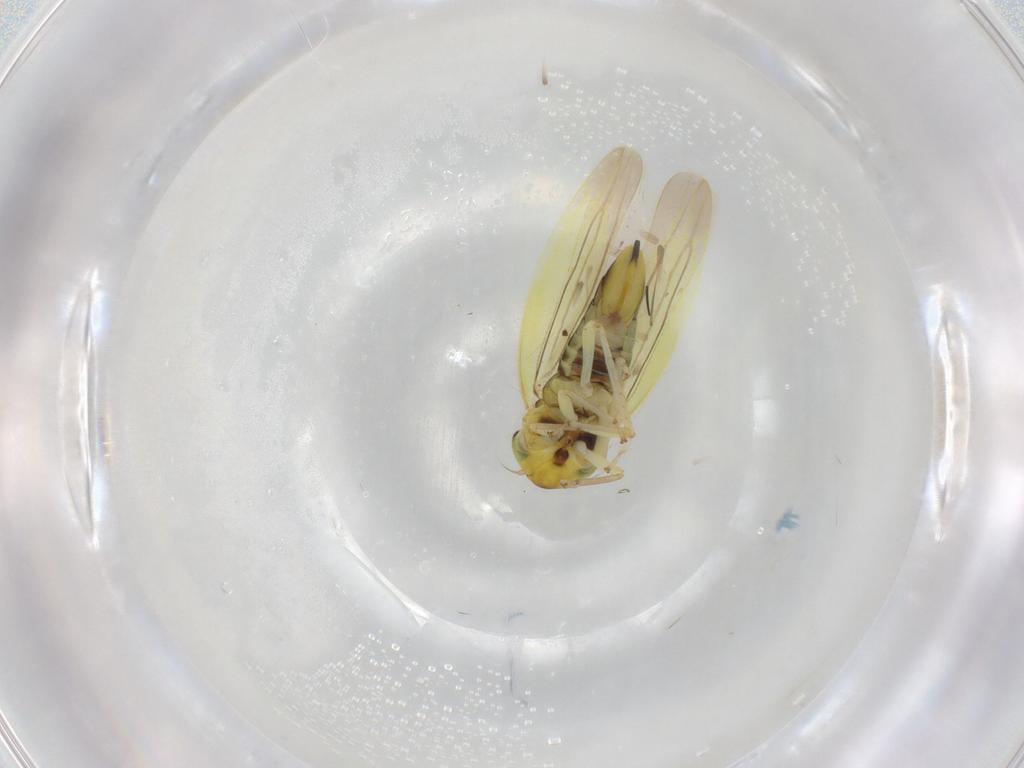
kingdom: Animalia
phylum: Arthropoda
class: Insecta
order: Hemiptera
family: Cicadellidae
